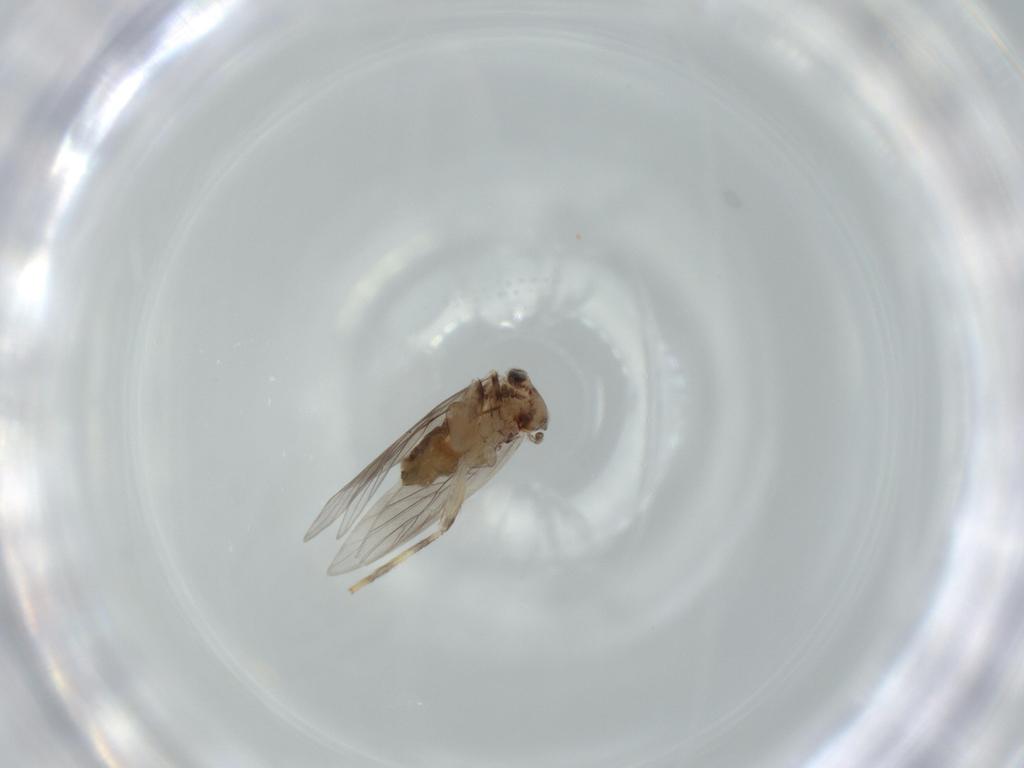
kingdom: Animalia
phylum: Arthropoda
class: Insecta
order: Psocodea
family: Lepidopsocidae
